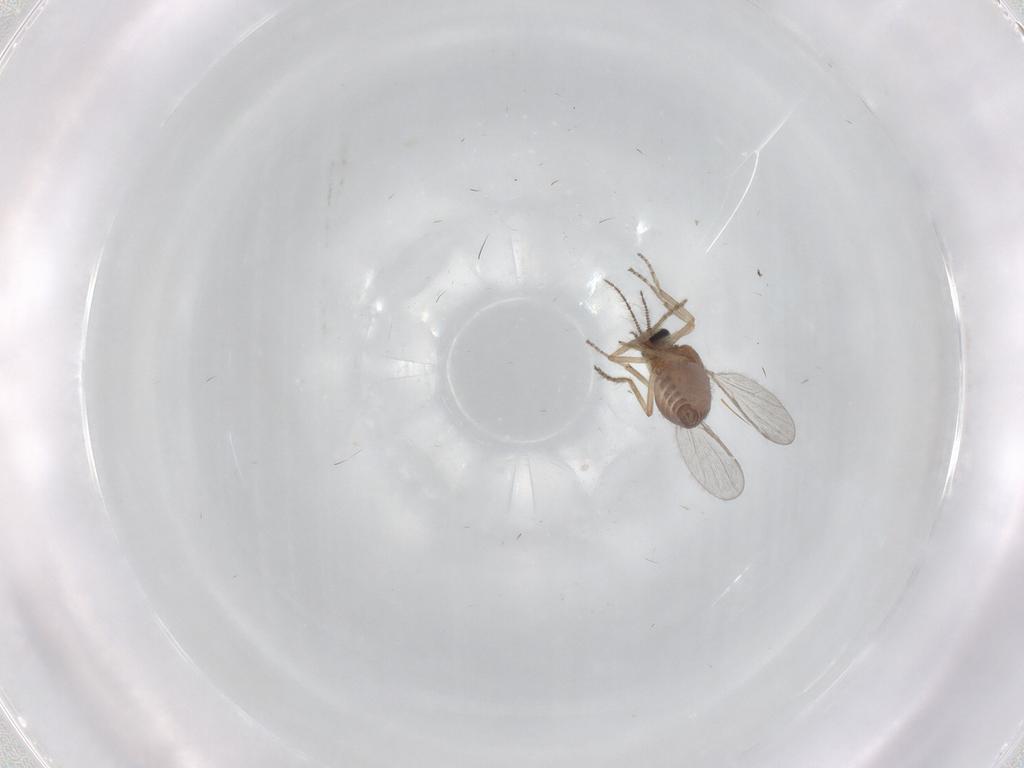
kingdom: Animalia
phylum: Arthropoda
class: Insecta
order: Diptera
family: Ceratopogonidae
